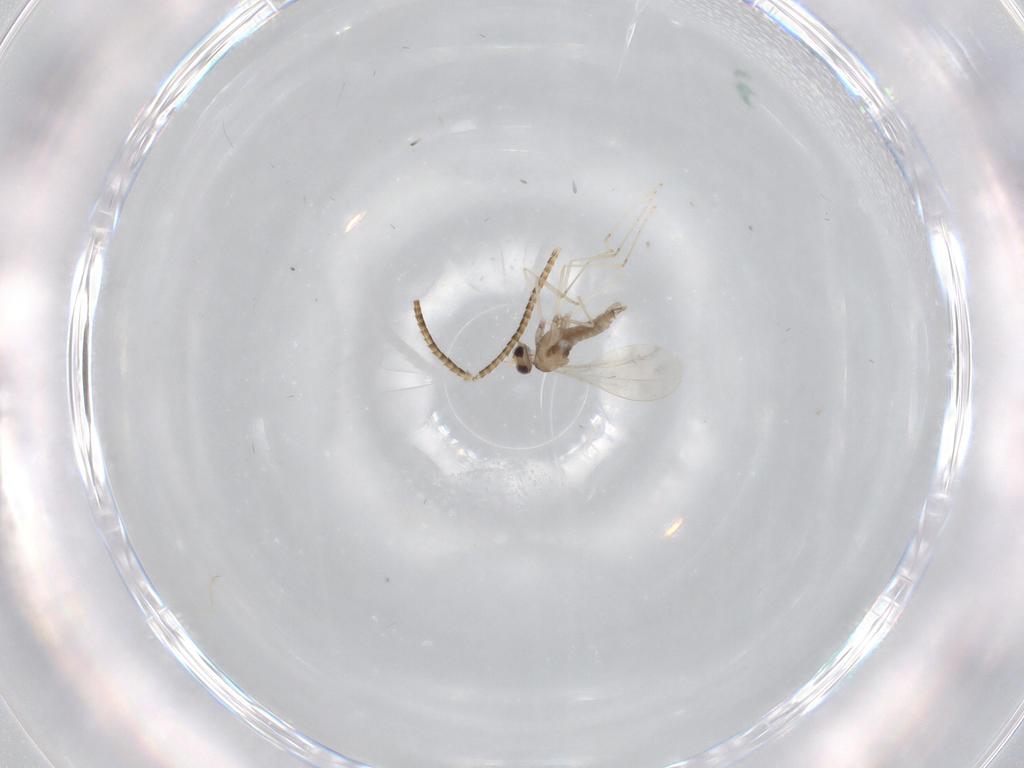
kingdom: Animalia
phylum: Arthropoda
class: Insecta
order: Diptera
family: Cecidomyiidae
